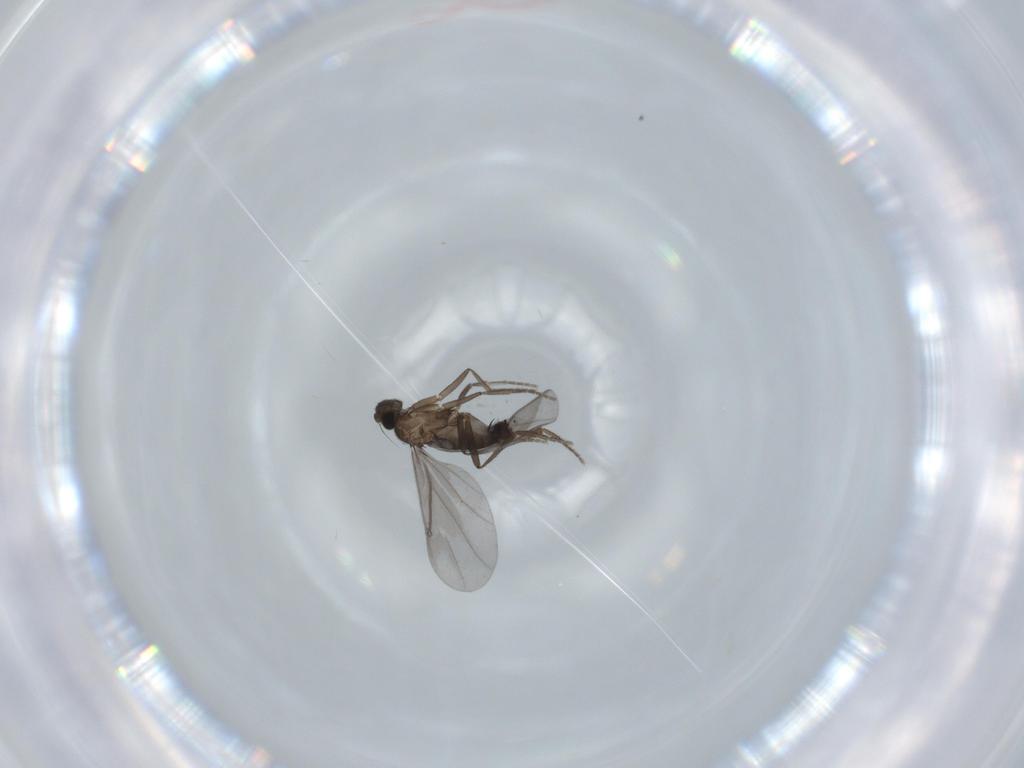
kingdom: Animalia
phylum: Arthropoda
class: Insecta
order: Diptera
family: Phoridae
